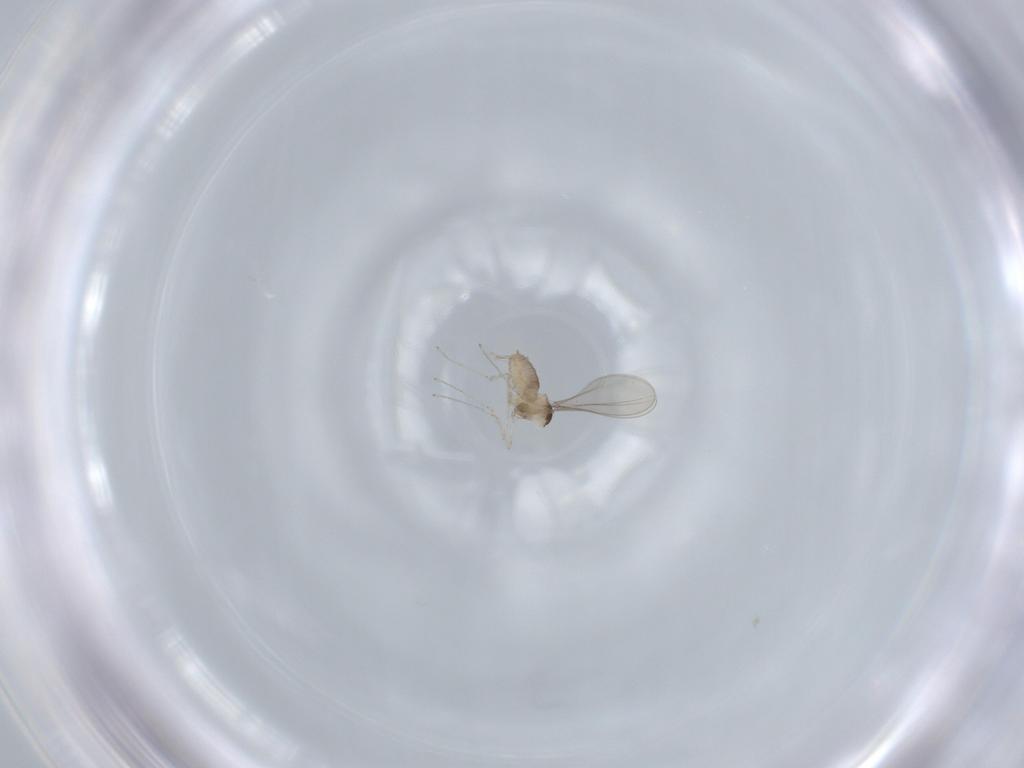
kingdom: Animalia
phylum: Arthropoda
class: Insecta
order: Diptera
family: Cecidomyiidae
